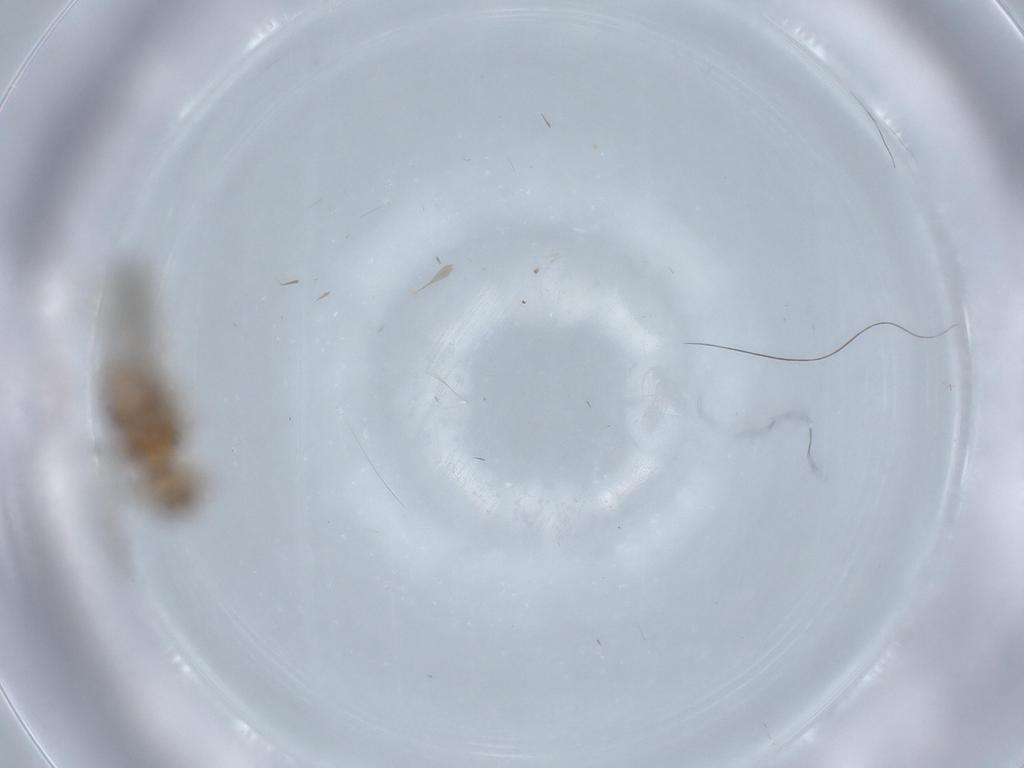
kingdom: Animalia
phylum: Arthropoda
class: Insecta
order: Psocodea
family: Lachesillidae
